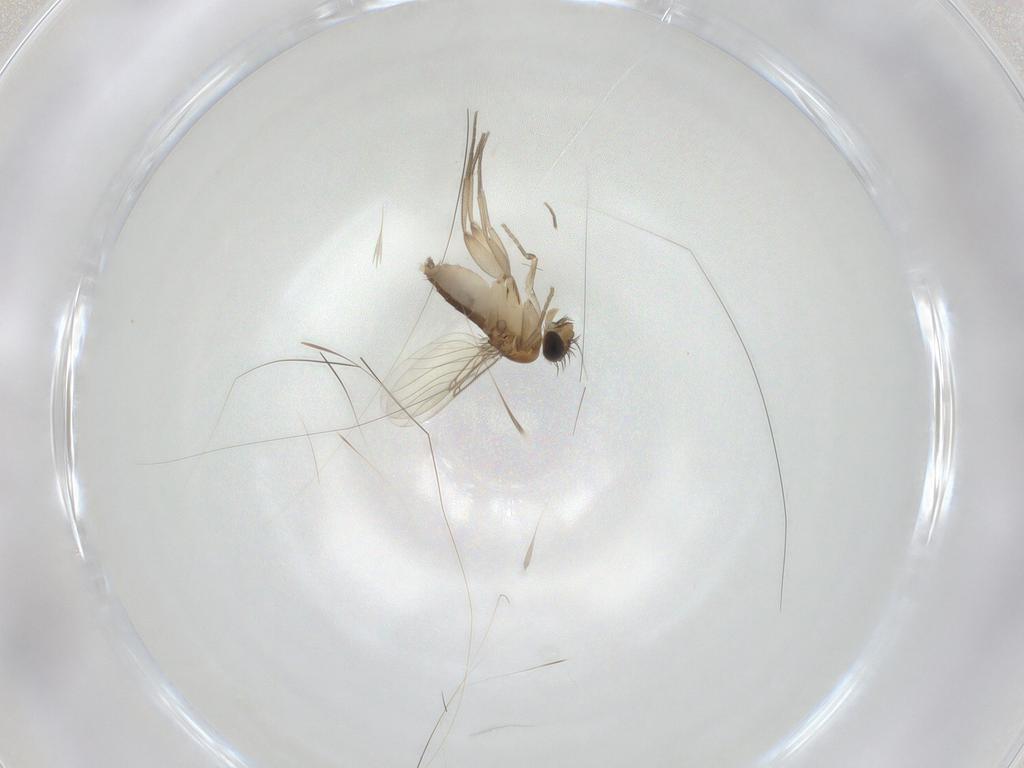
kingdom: Animalia
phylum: Arthropoda
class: Insecta
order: Diptera
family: Phoridae
